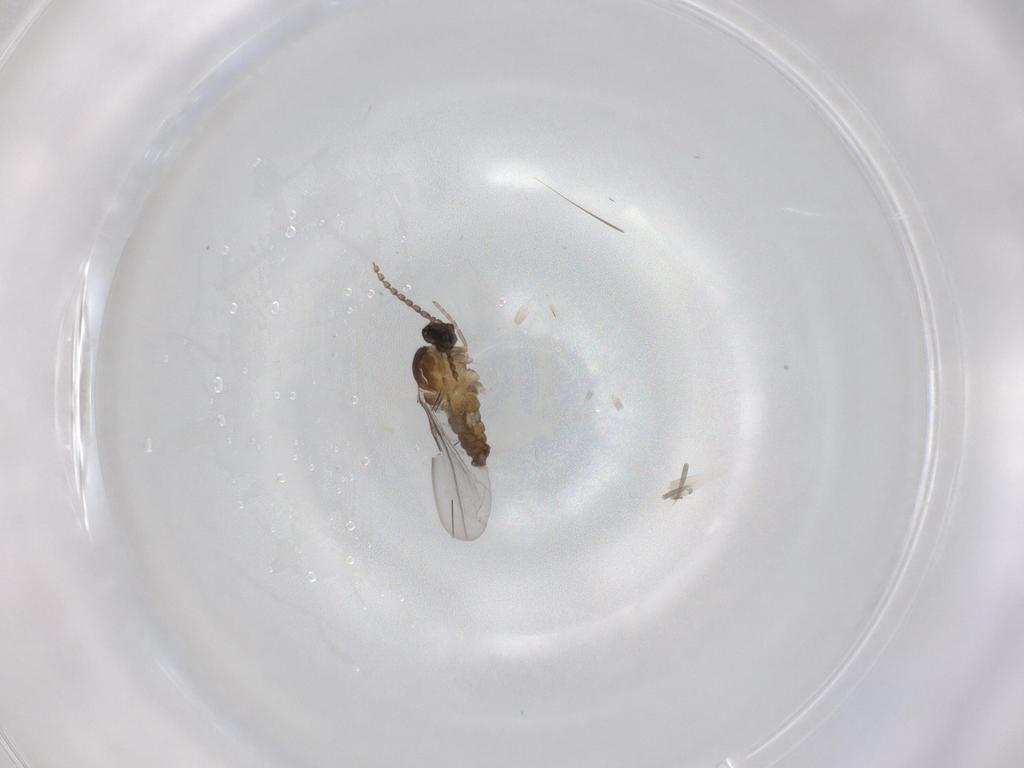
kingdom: Animalia
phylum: Arthropoda
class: Insecta
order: Diptera
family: Cecidomyiidae
